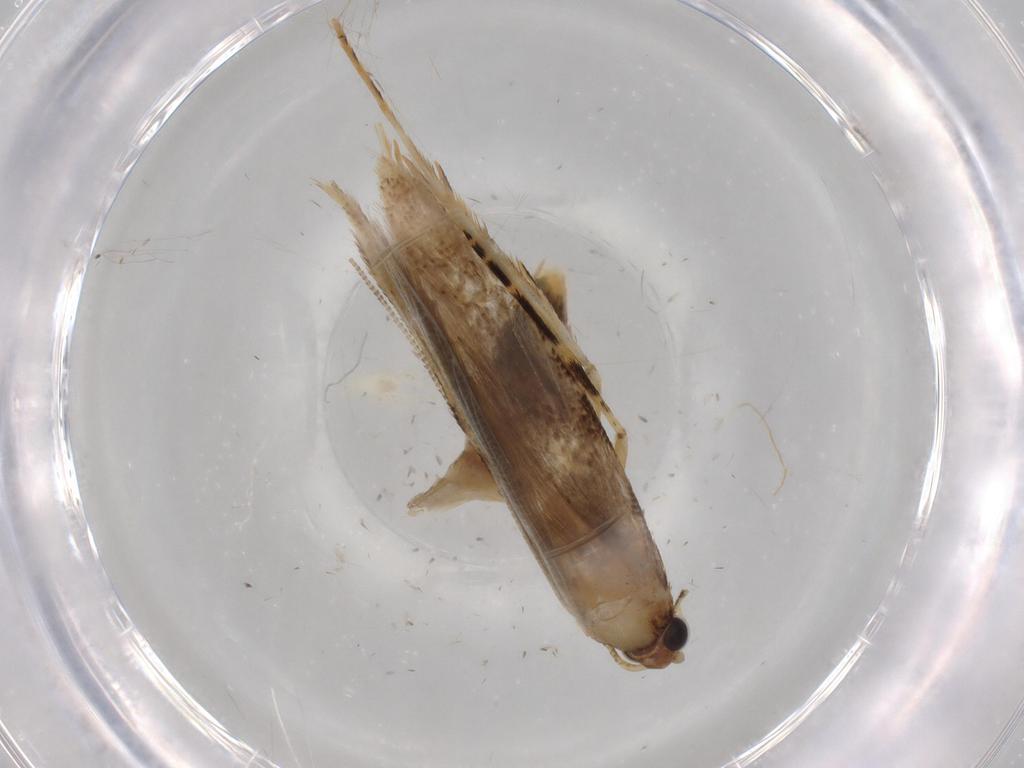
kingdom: Animalia
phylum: Arthropoda
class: Insecta
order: Lepidoptera
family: Tineidae
